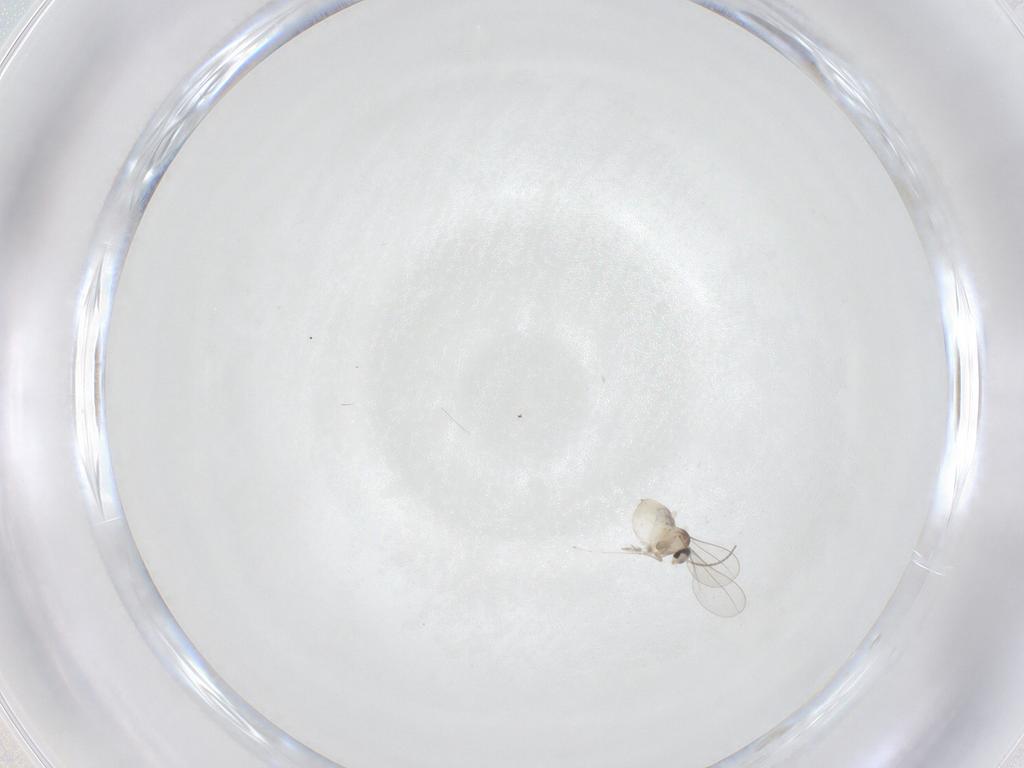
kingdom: Animalia
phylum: Arthropoda
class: Insecta
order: Diptera
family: Cecidomyiidae
